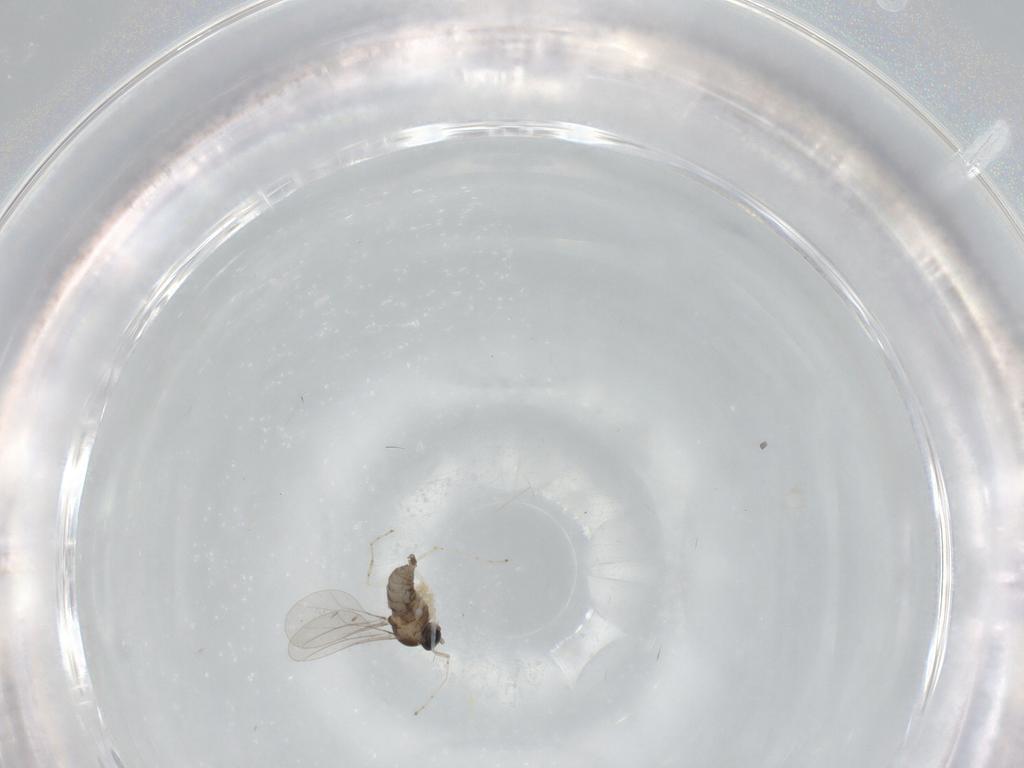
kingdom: Animalia
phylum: Arthropoda
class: Insecta
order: Diptera
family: Cecidomyiidae
